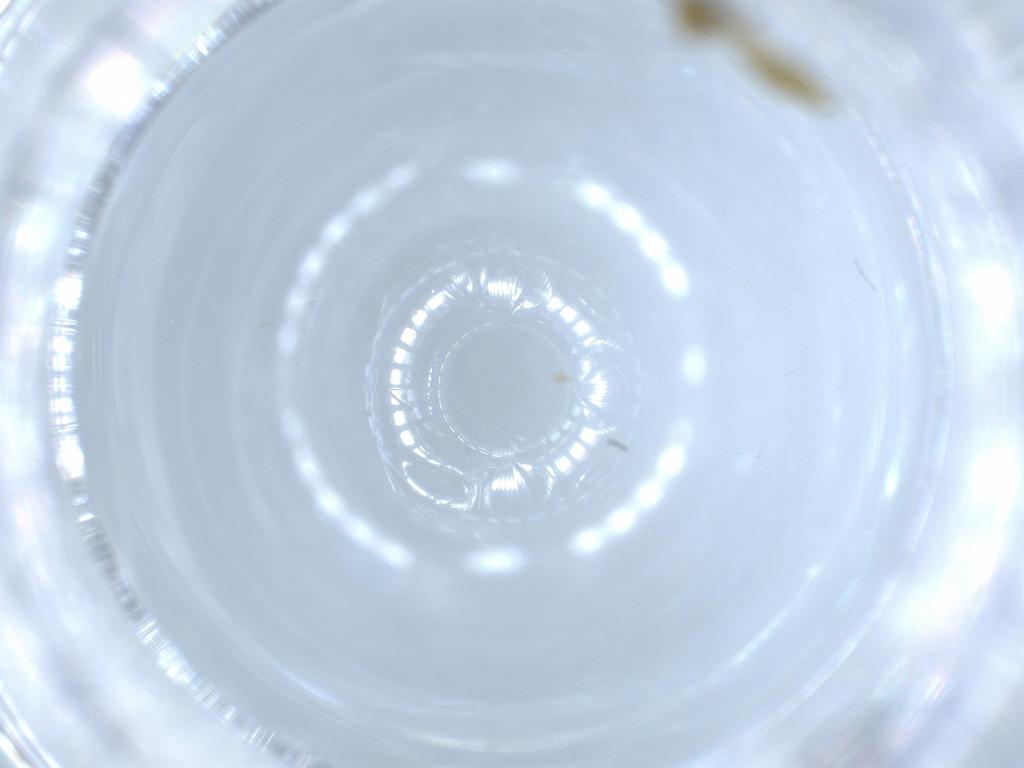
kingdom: Animalia
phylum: Arthropoda
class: Insecta
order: Diptera
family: Chironomidae
